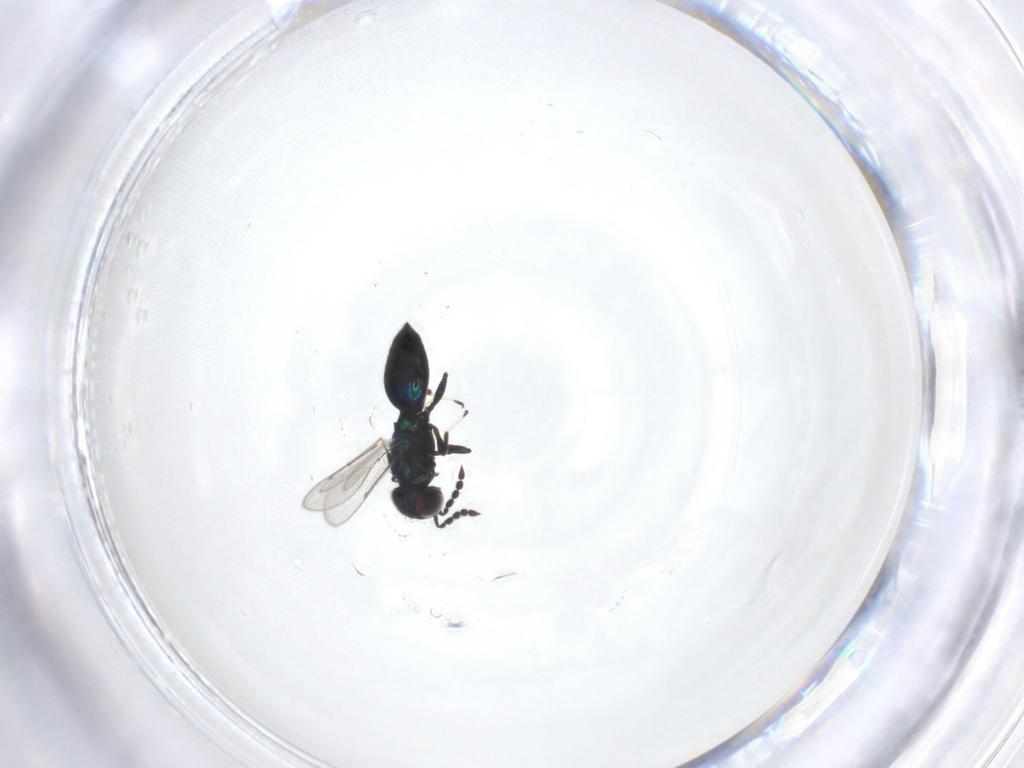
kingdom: Animalia
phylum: Arthropoda
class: Insecta
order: Hymenoptera
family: Eulophidae
